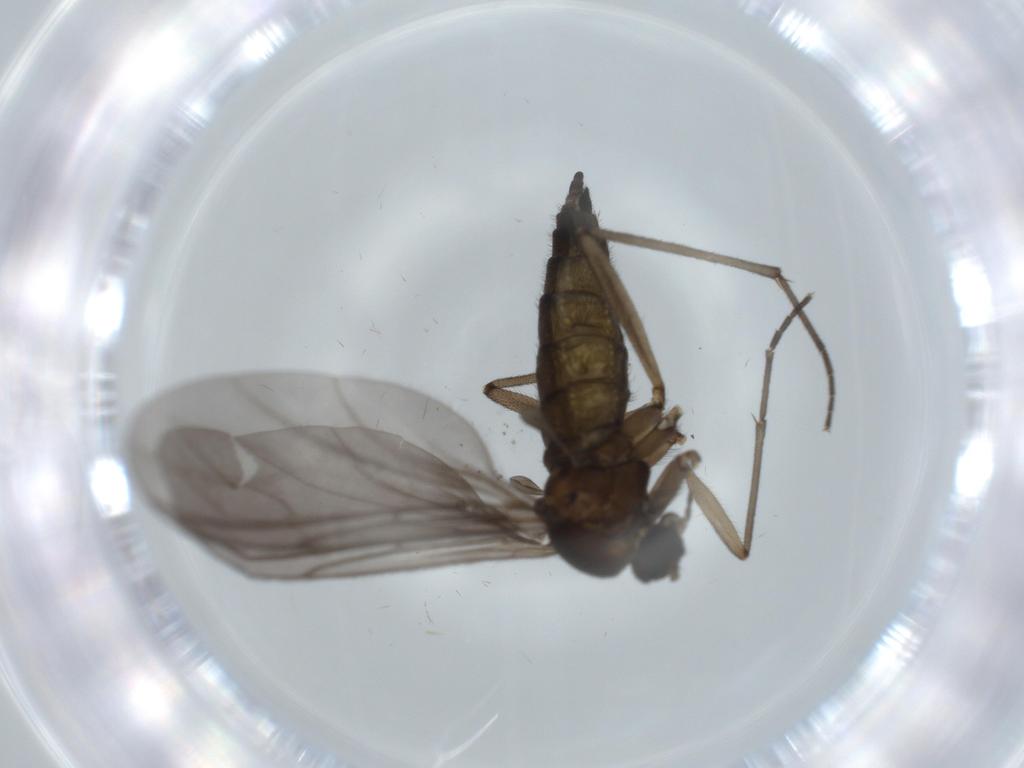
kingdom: Animalia
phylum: Arthropoda
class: Insecta
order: Diptera
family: Sciaridae
